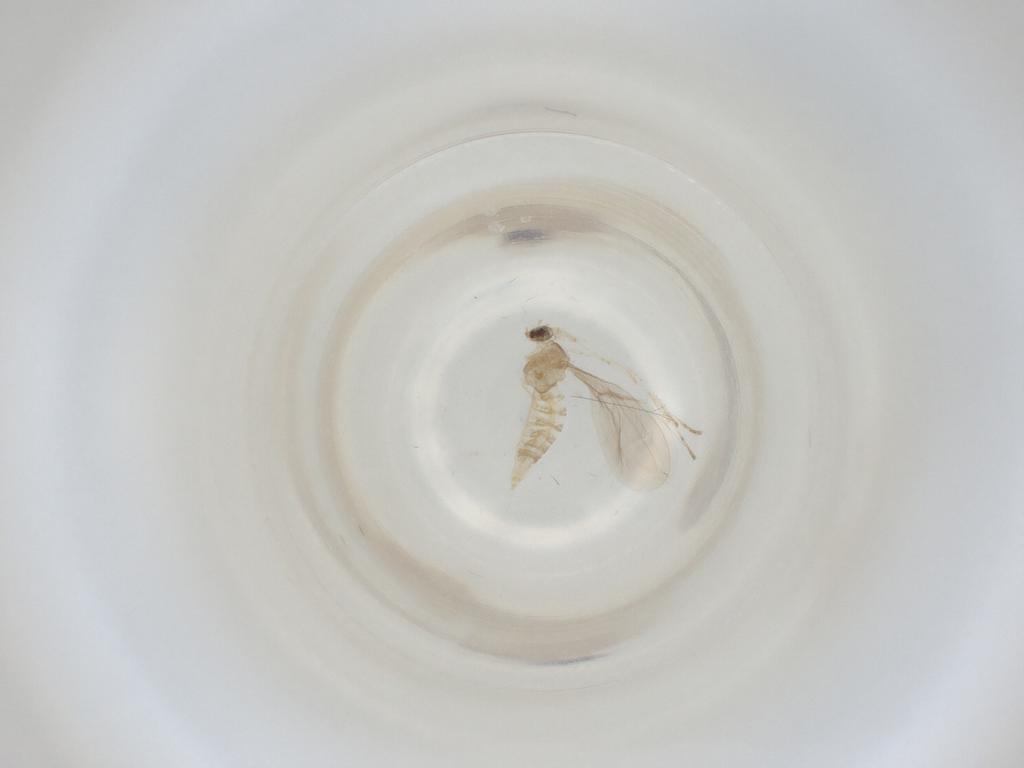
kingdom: Animalia
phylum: Arthropoda
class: Insecta
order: Diptera
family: Cecidomyiidae
